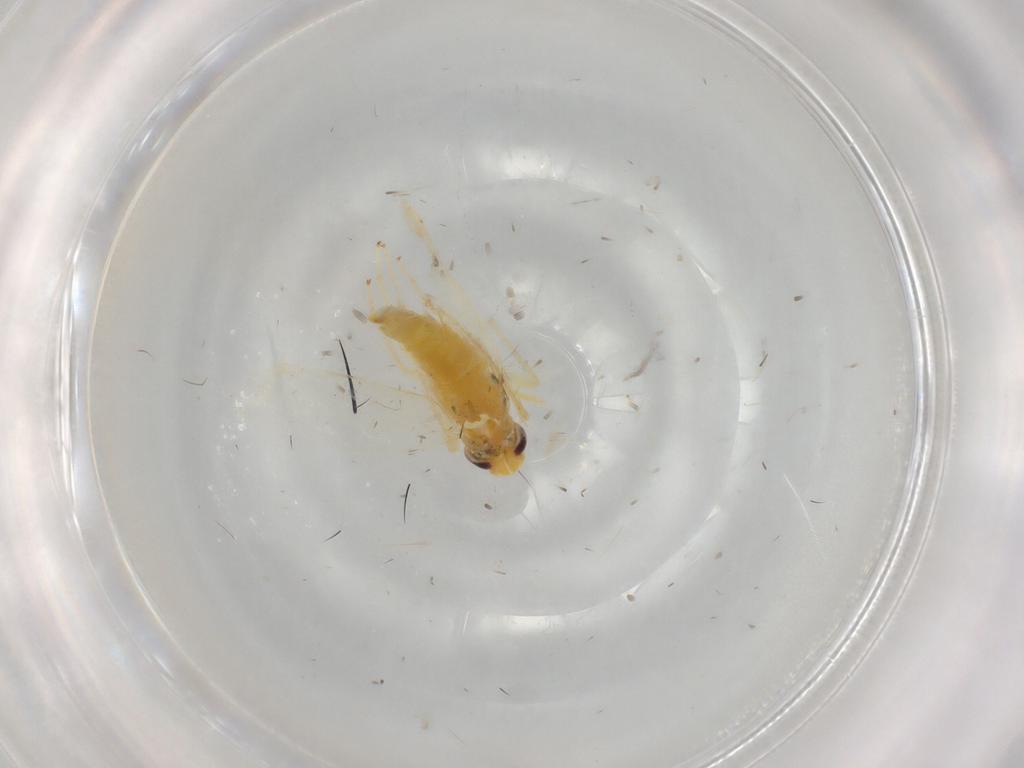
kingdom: Animalia
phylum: Arthropoda
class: Insecta
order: Hemiptera
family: Cicadellidae
